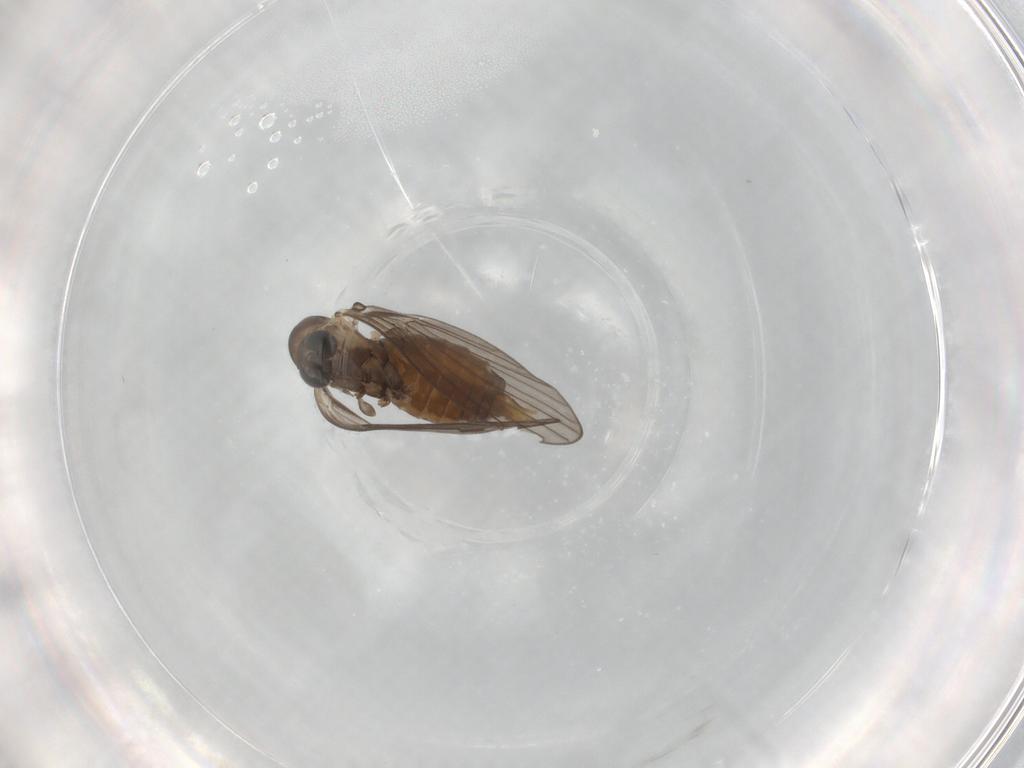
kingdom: Animalia
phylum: Arthropoda
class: Insecta
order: Diptera
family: Psychodidae
